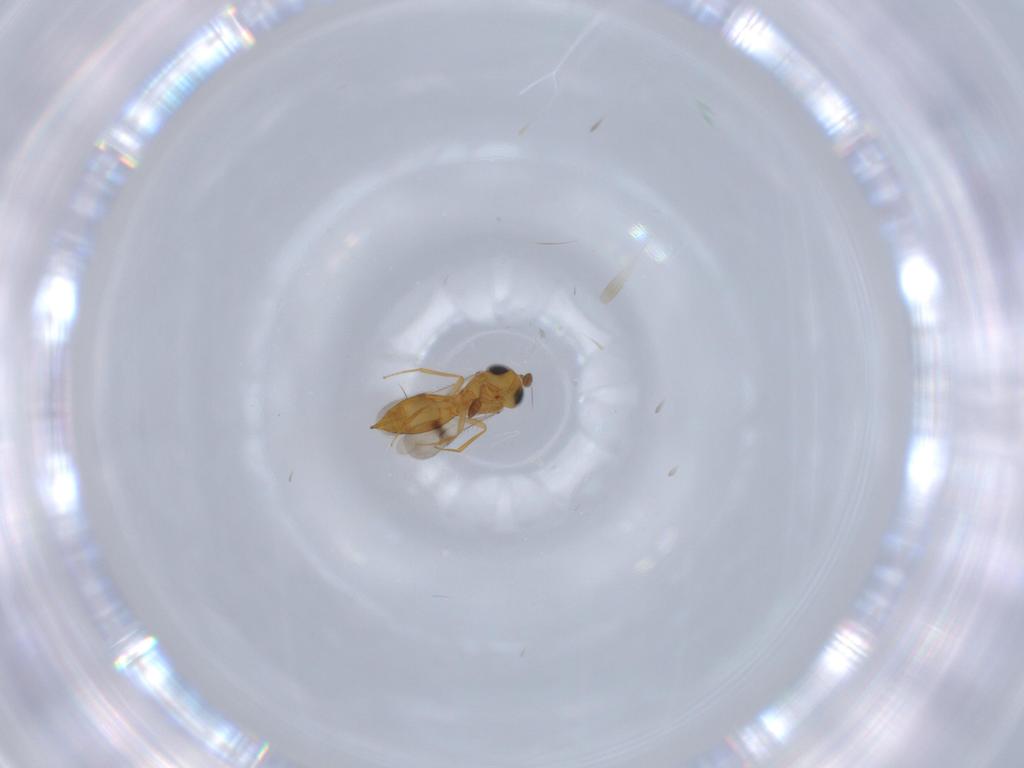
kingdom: Animalia
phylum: Arthropoda
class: Insecta
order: Hymenoptera
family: Scelionidae
